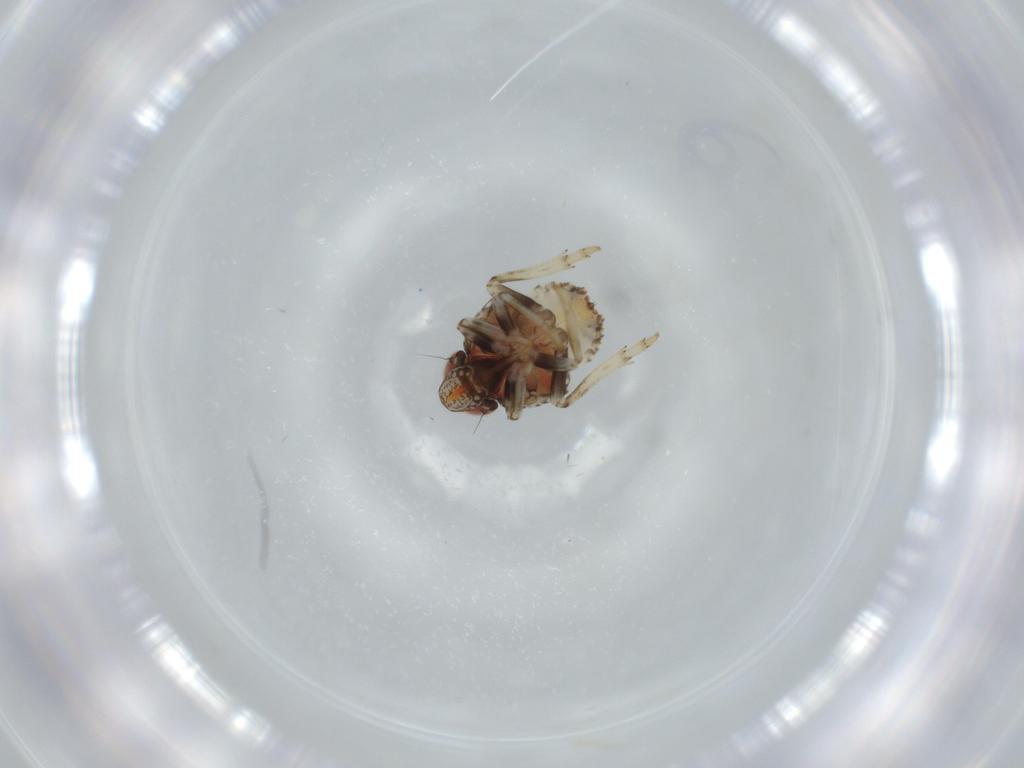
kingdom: Animalia
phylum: Arthropoda
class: Insecta
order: Hemiptera
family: Issidae
